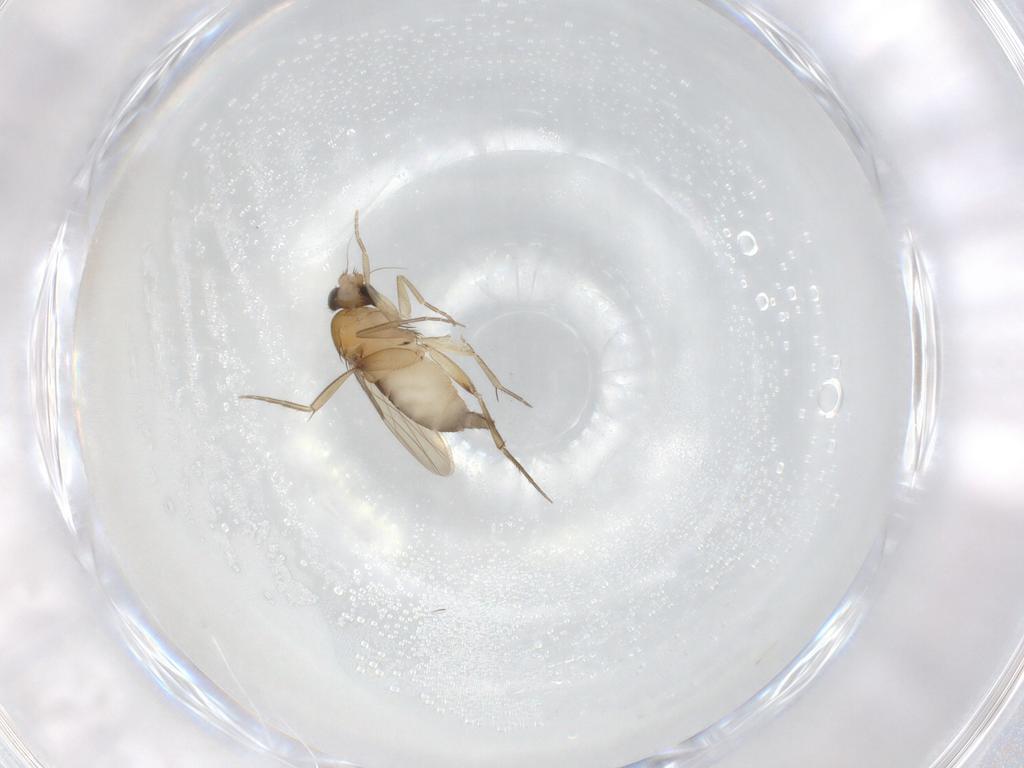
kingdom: Animalia
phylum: Arthropoda
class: Insecta
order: Diptera
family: Phoridae
